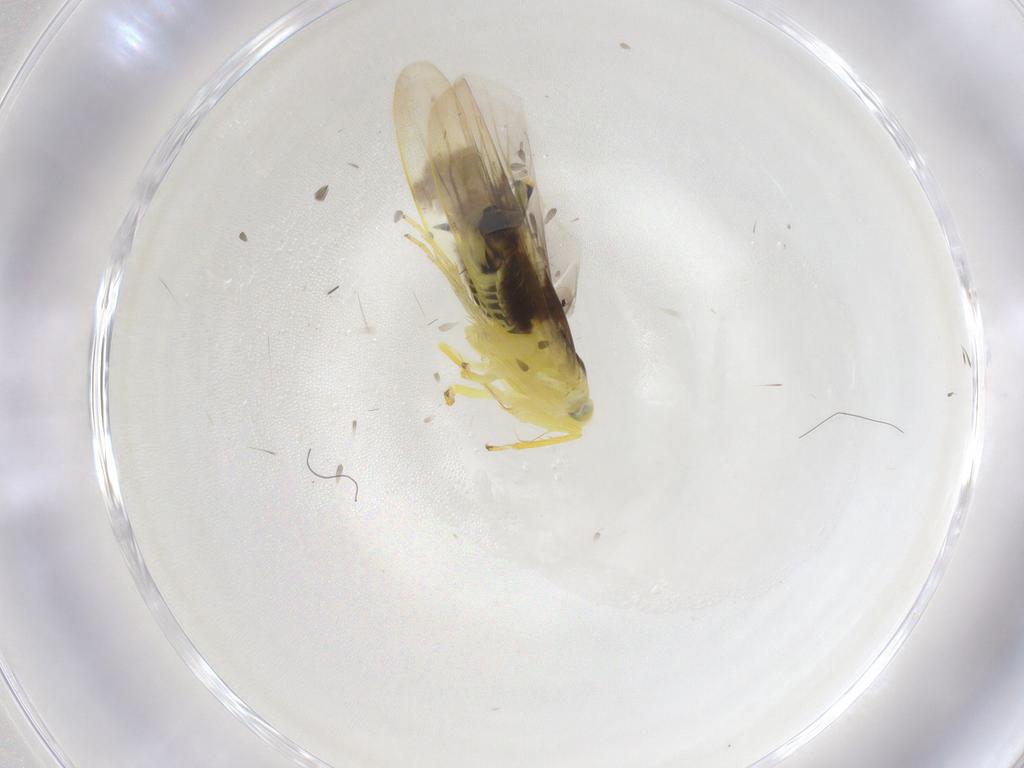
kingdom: Animalia
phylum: Arthropoda
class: Insecta
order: Hemiptera
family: Cicadellidae
